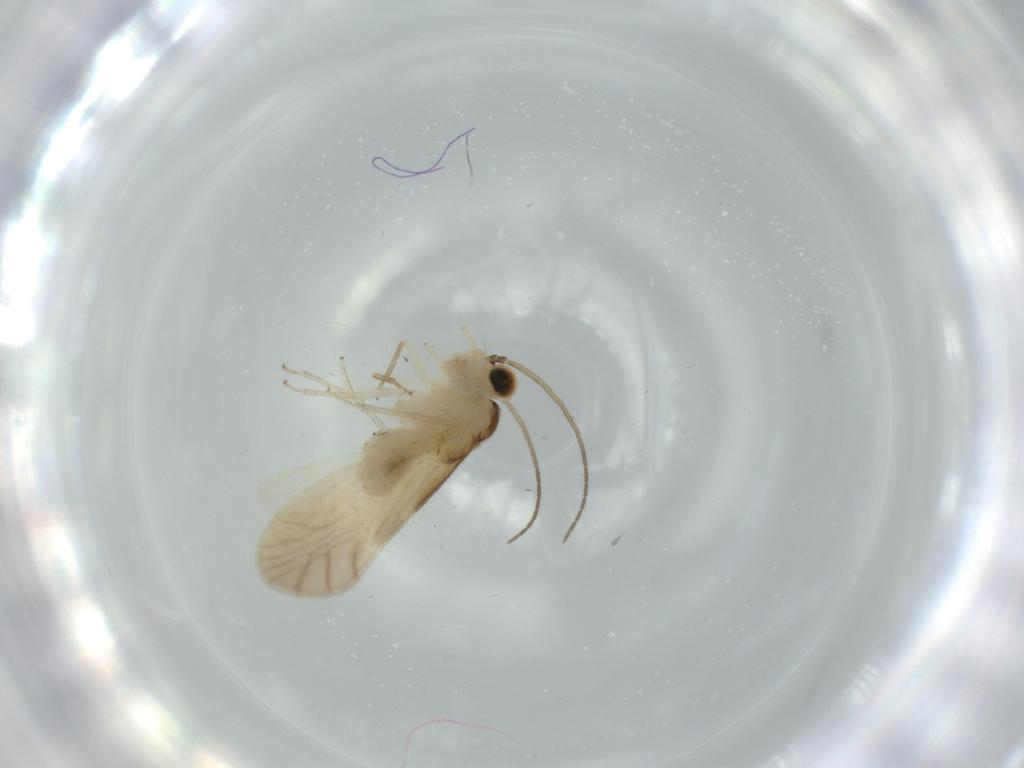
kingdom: Animalia
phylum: Arthropoda
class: Insecta
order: Psocodea
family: Caeciliusidae
